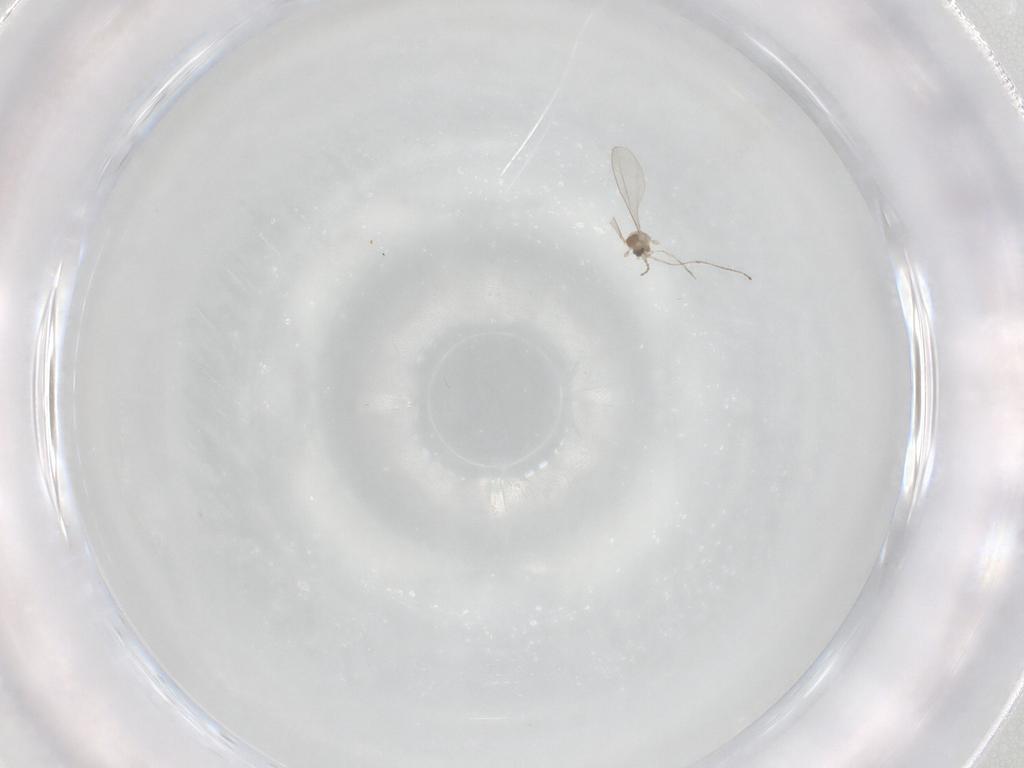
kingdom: Animalia
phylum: Arthropoda
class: Insecta
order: Diptera
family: Cecidomyiidae
